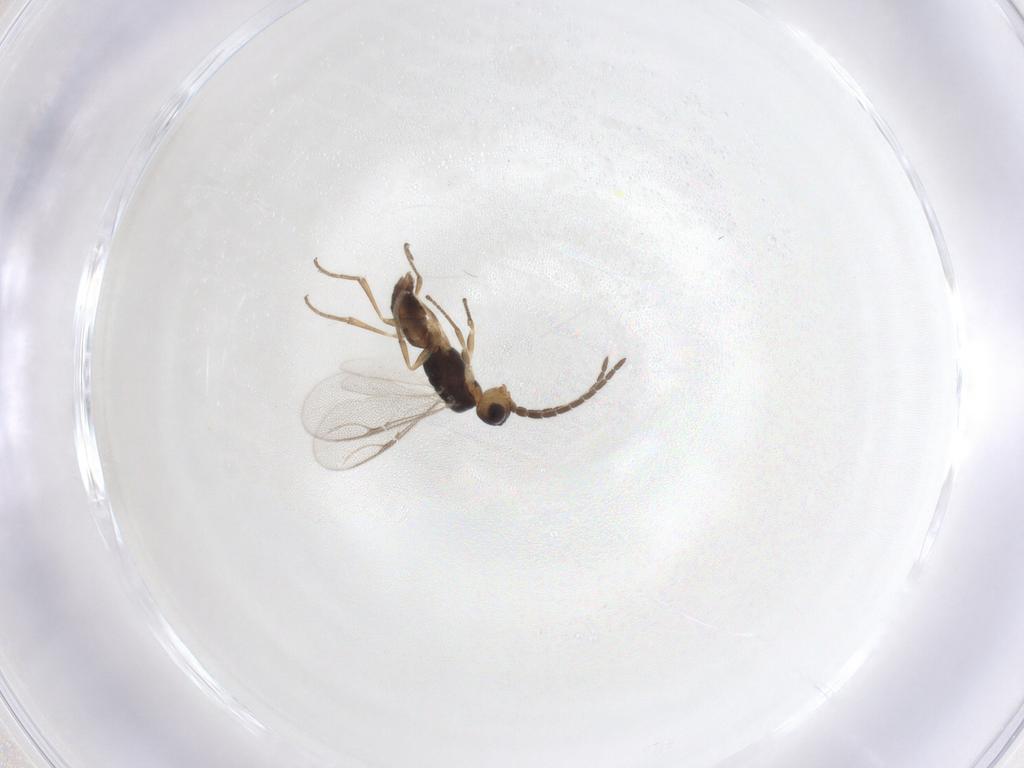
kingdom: Animalia
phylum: Arthropoda
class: Insecta
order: Hymenoptera
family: Dryinidae
